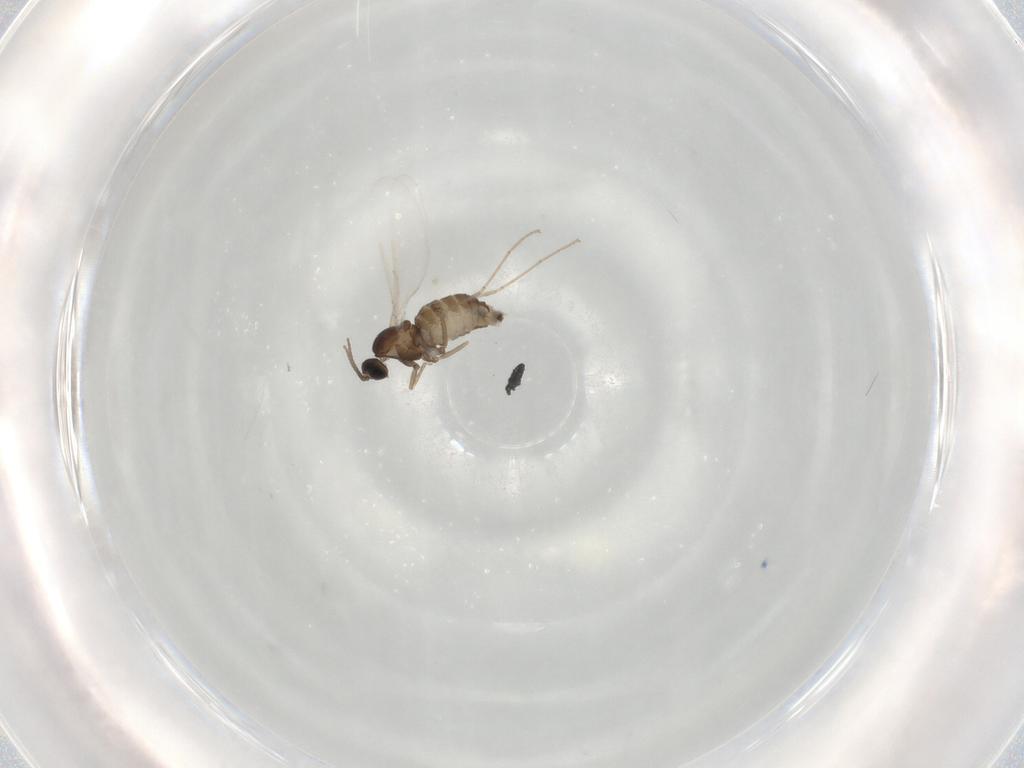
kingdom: Animalia
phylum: Arthropoda
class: Insecta
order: Diptera
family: Cecidomyiidae
